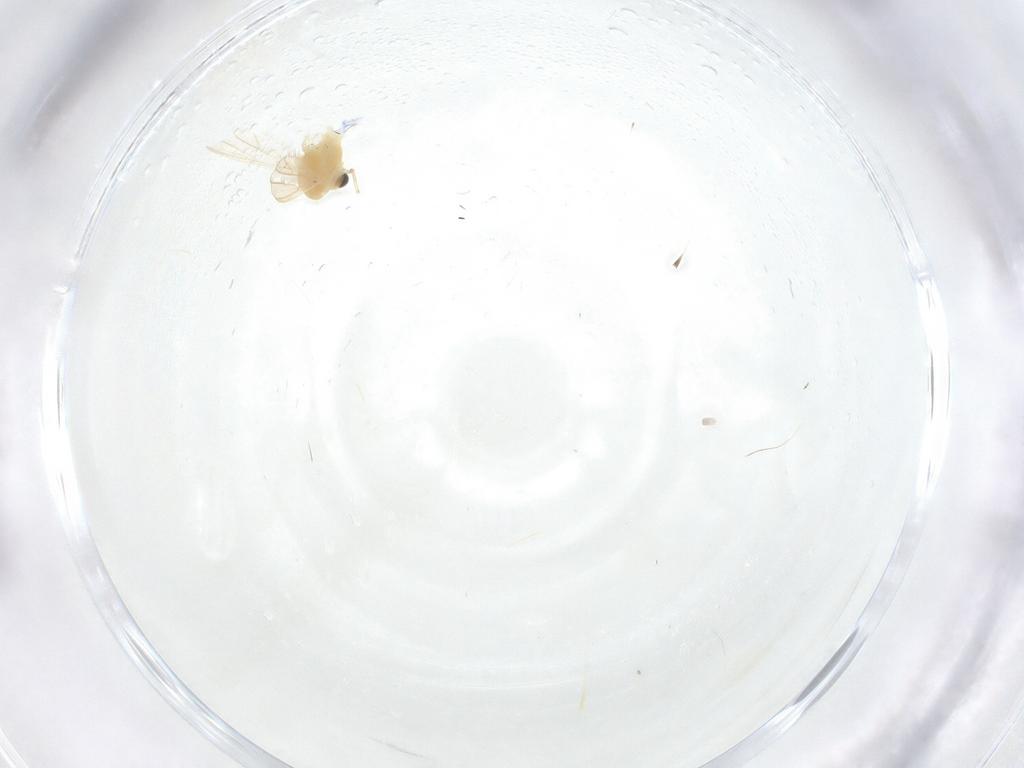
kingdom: Animalia
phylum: Arthropoda
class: Insecta
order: Diptera
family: Chironomidae
